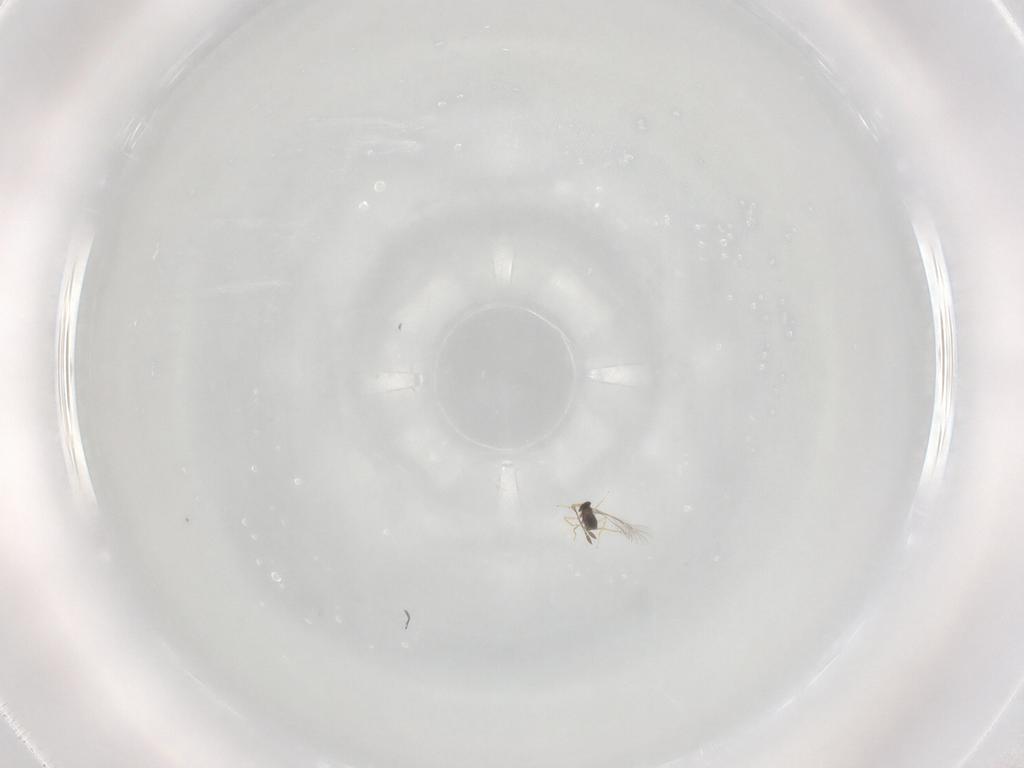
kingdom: Animalia
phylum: Arthropoda
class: Insecta
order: Hymenoptera
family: Mymaridae
